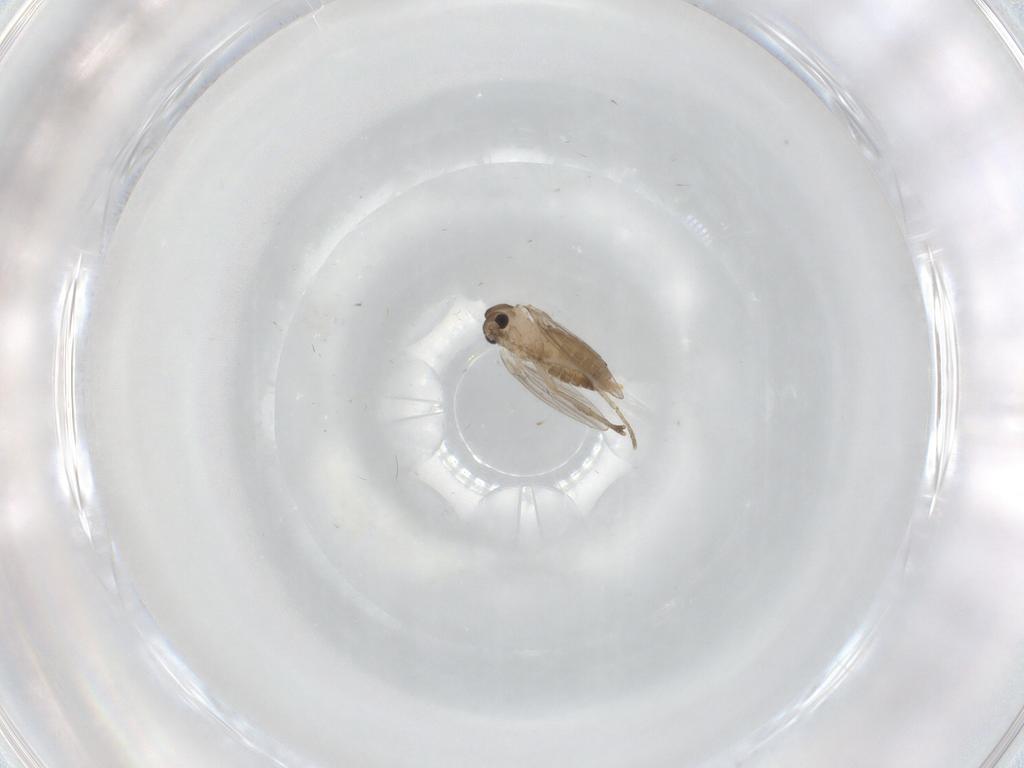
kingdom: Animalia
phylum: Arthropoda
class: Insecta
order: Diptera
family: Psychodidae
